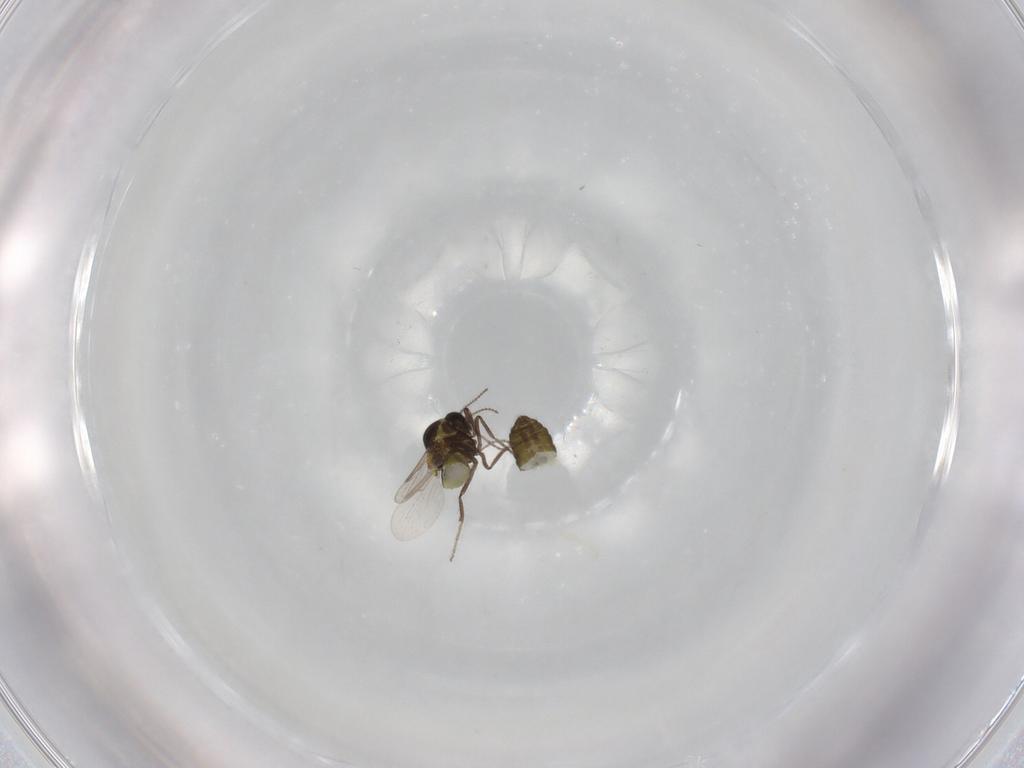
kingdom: Animalia
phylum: Arthropoda
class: Insecta
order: Diptera
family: Ceratopogonidae
